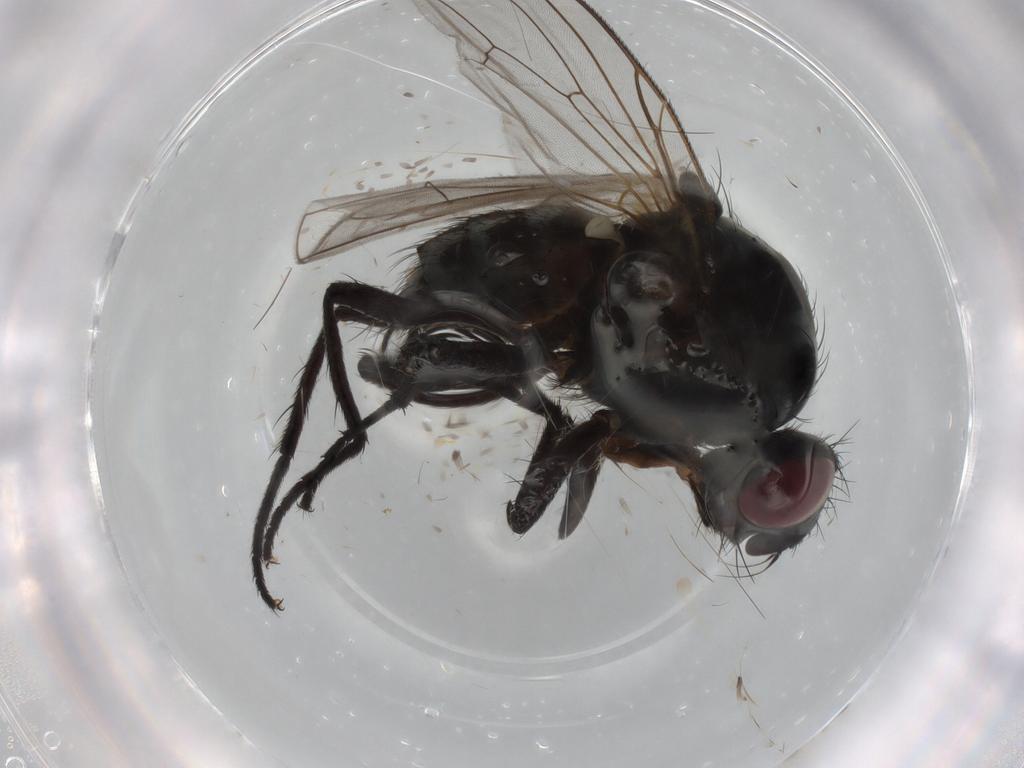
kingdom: Animalia
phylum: Arthropoda
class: Insecta
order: Diptera
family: Anthomyiidae
